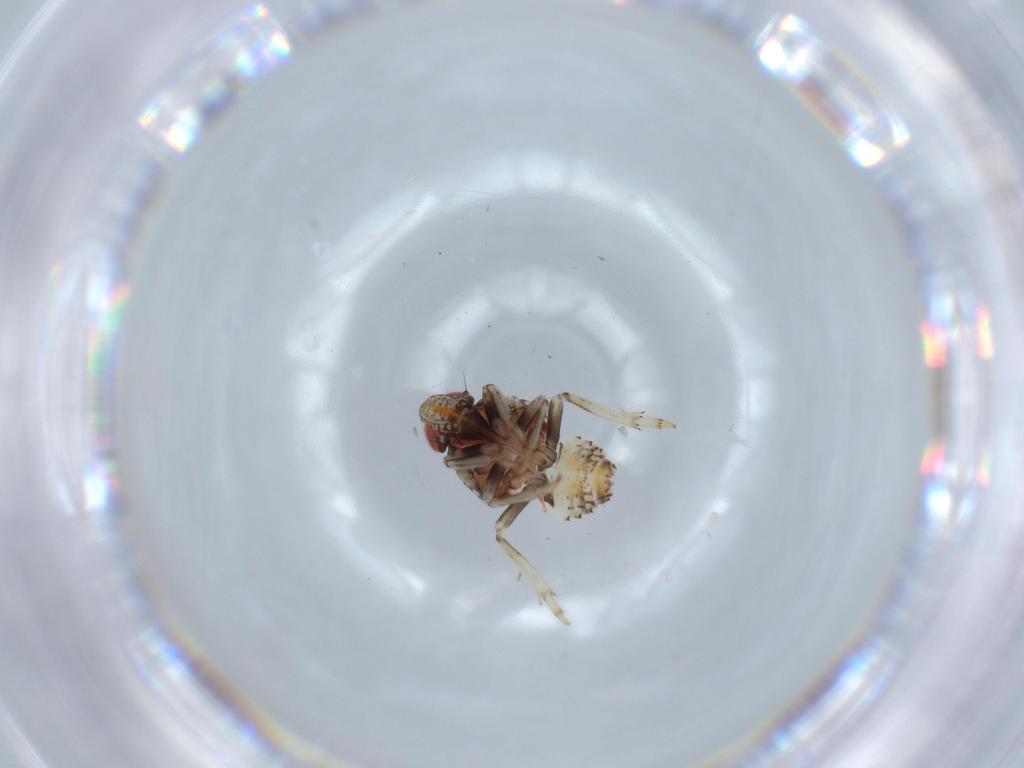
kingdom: Animalia
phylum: Arthropoda
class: Insecta
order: Hemiptera
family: Issidae
